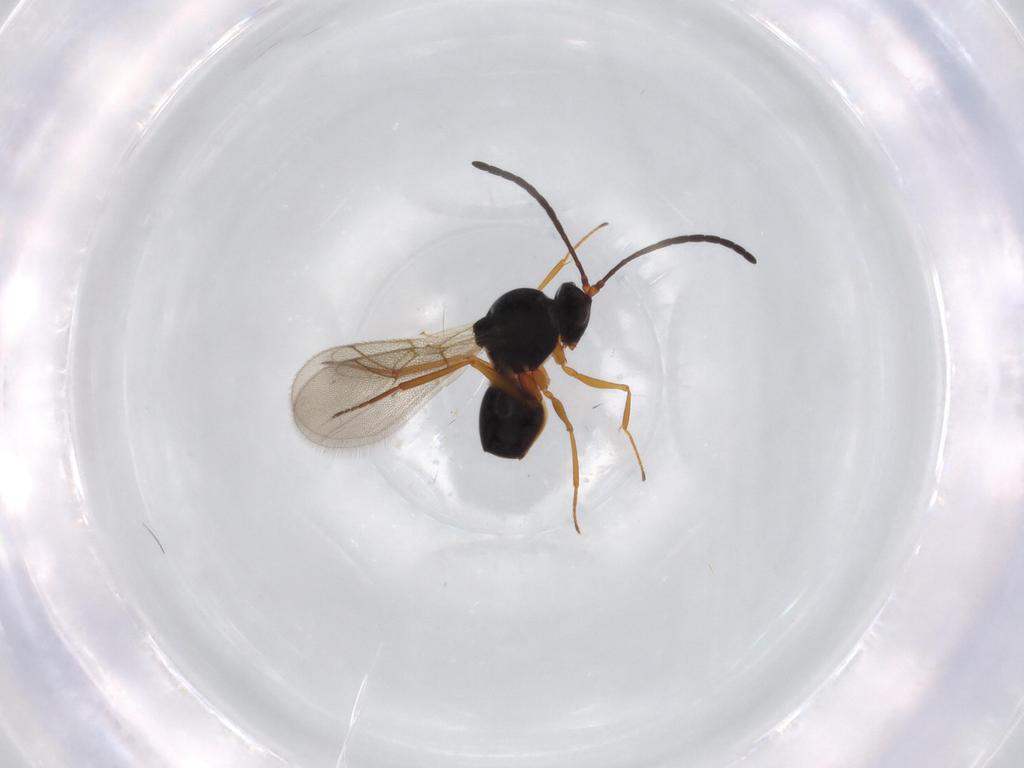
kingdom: Animalia
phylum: Arthropoda
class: Insecta
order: Hymenoptera
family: Figitidae
